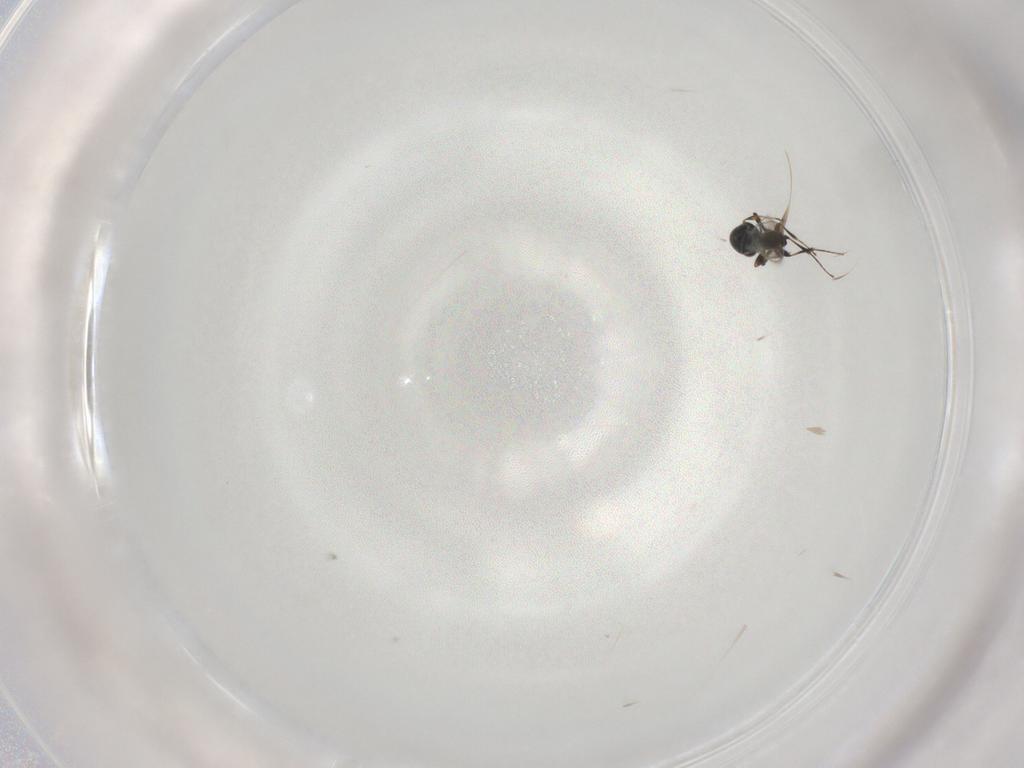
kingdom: Animalia
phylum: Arthropoda
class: Insecta
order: Hymenoptera
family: Platygastridae
